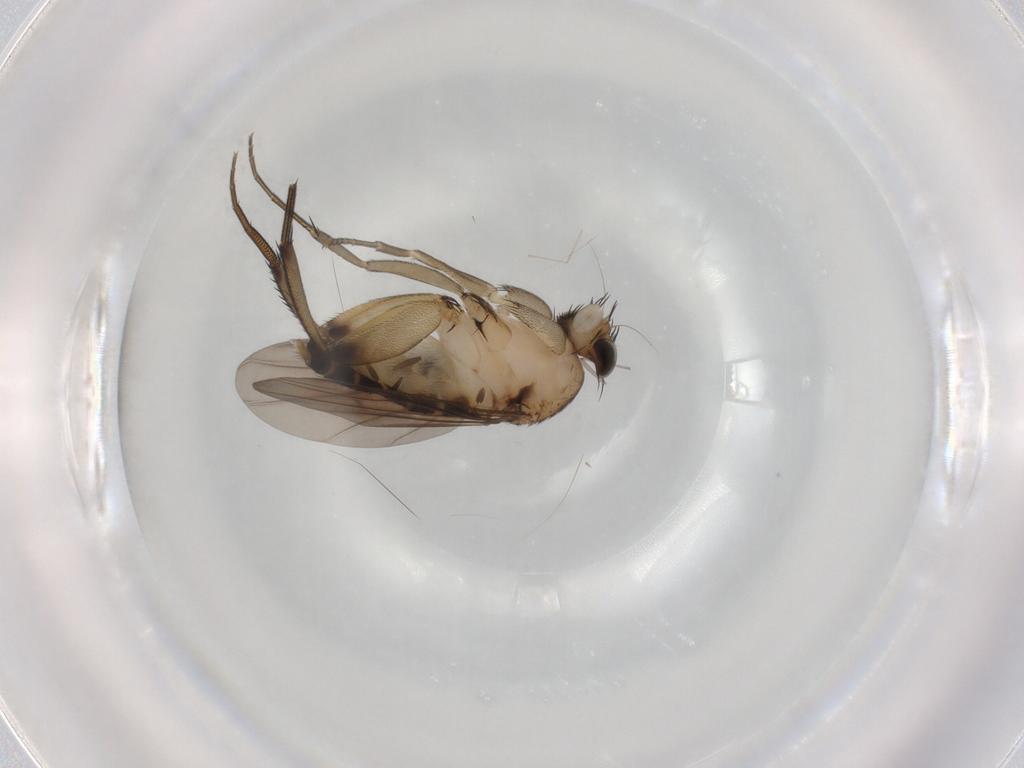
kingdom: Animalia
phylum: Arthropoda
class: Insecta
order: Diptera
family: Phoridae
